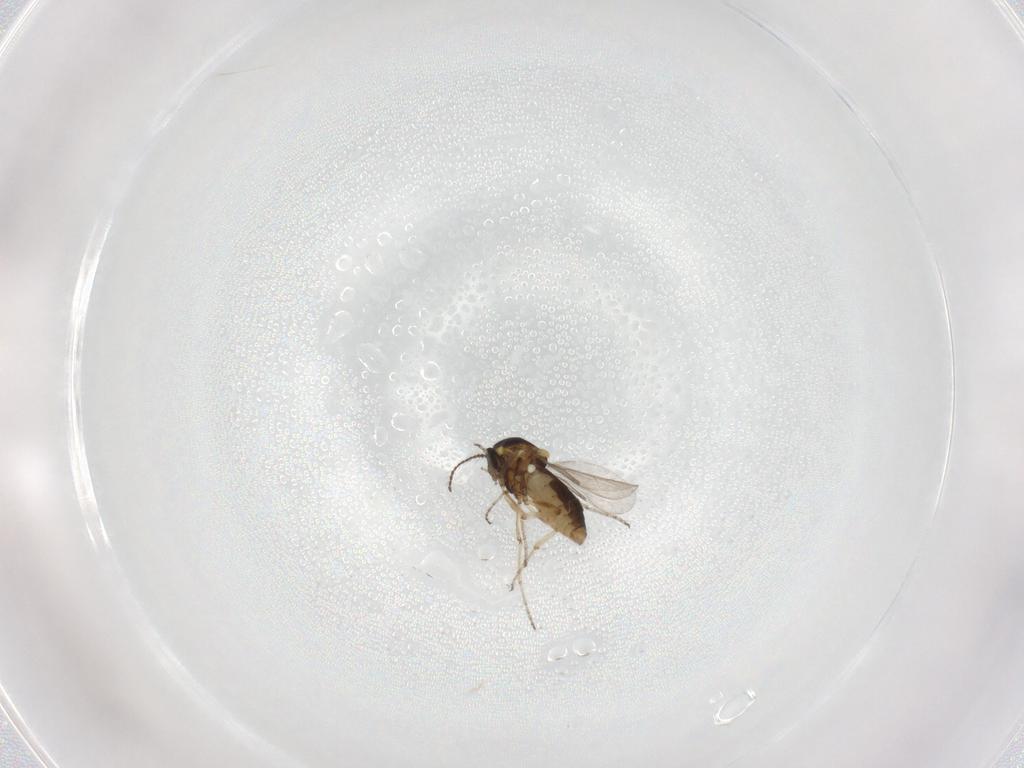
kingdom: Animalia
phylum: Arthropoda
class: Insecta
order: Diptera
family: Ceratopogonidae
